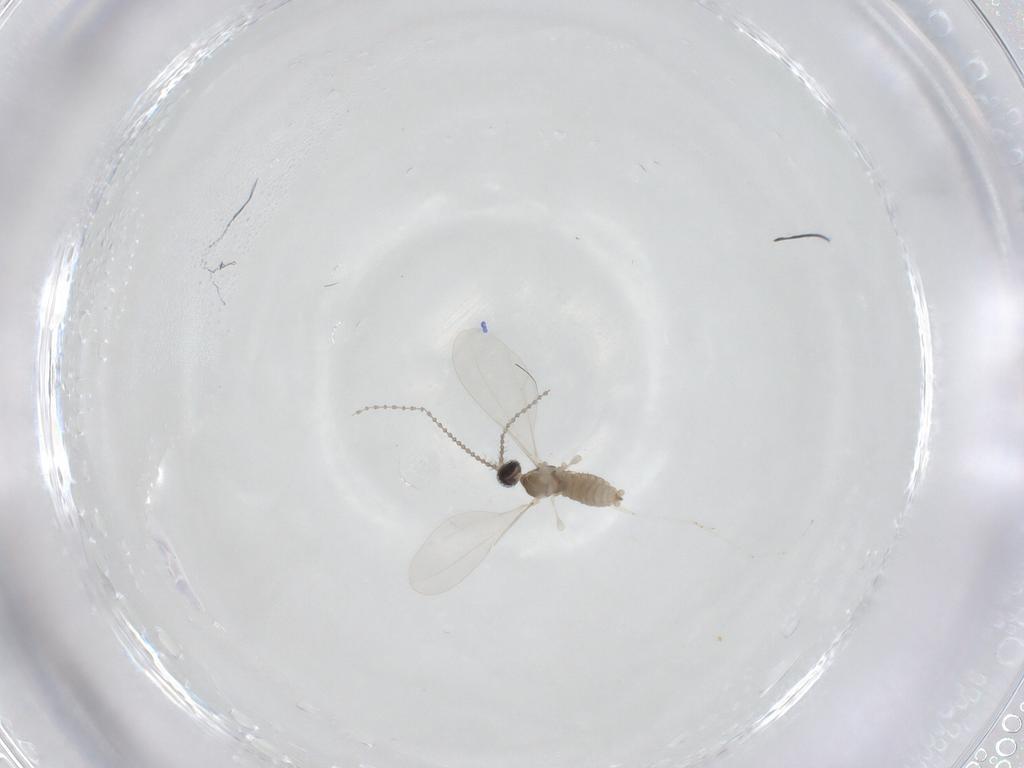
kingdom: Animalia
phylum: Arthropoda
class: Insecta
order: Diptera
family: Cecidomyiidae
